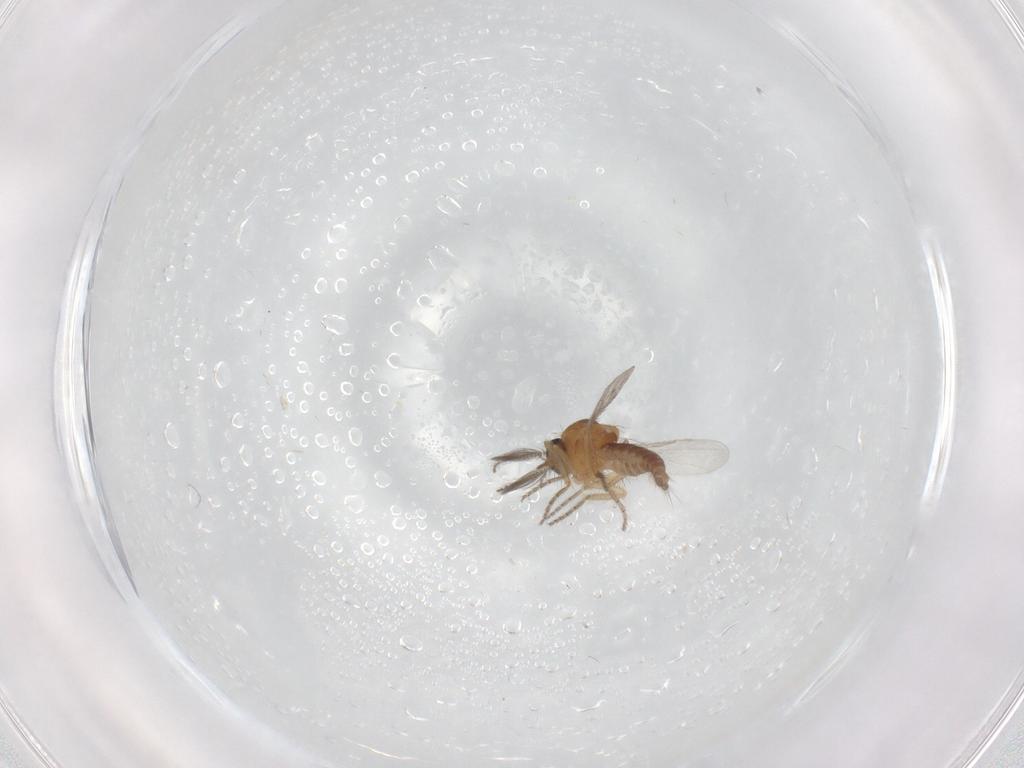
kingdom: Animalia
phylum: Arthropoda
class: Insecta
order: Diptera
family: Ceratopogonidae
